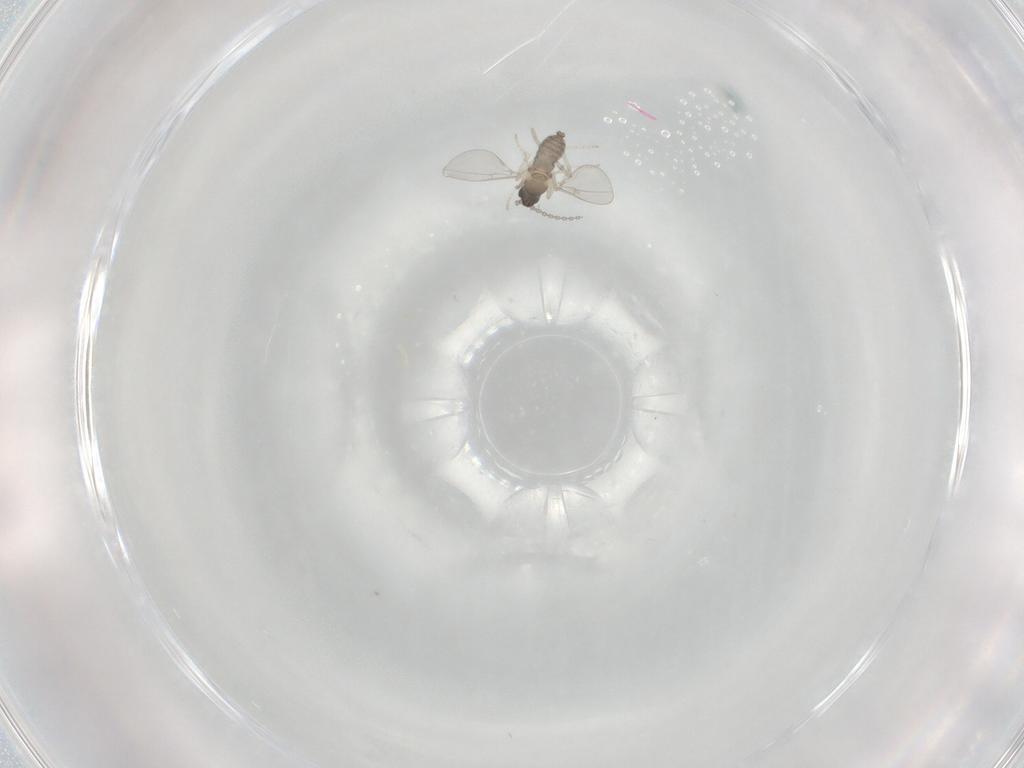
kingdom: Animalia
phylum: Arthropoda
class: Insecta
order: Diptera
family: Cecidomyiidae
